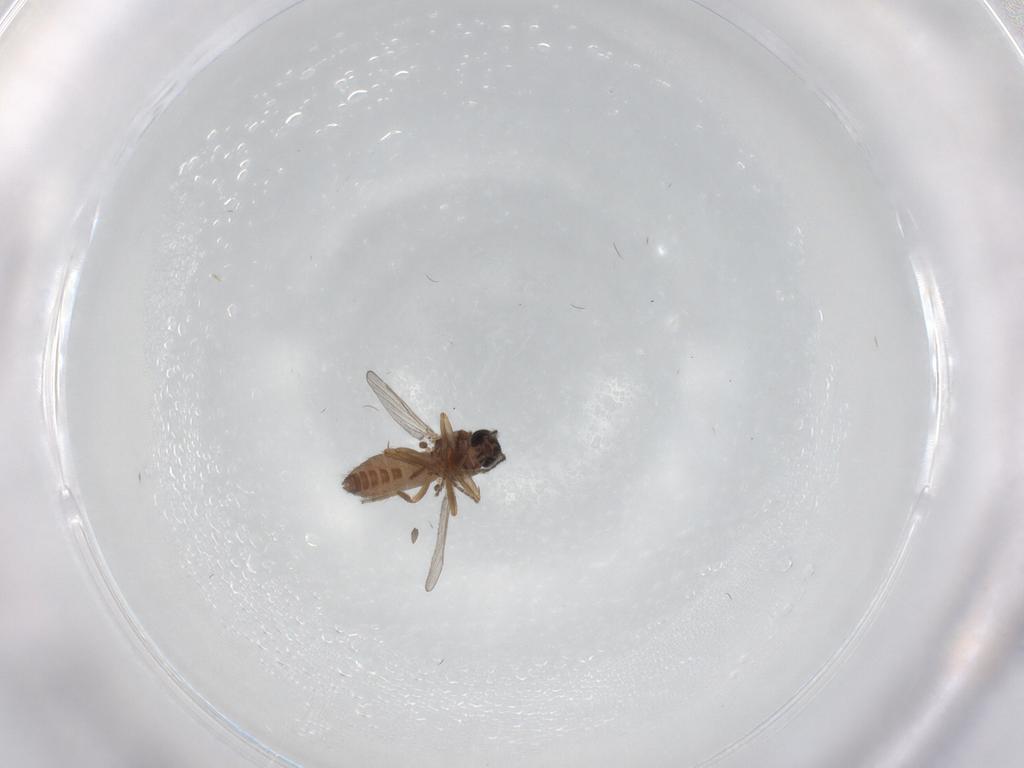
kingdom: Animalia
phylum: Arthropoda
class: Insecta
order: Diptera
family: Ceratopogonidae
